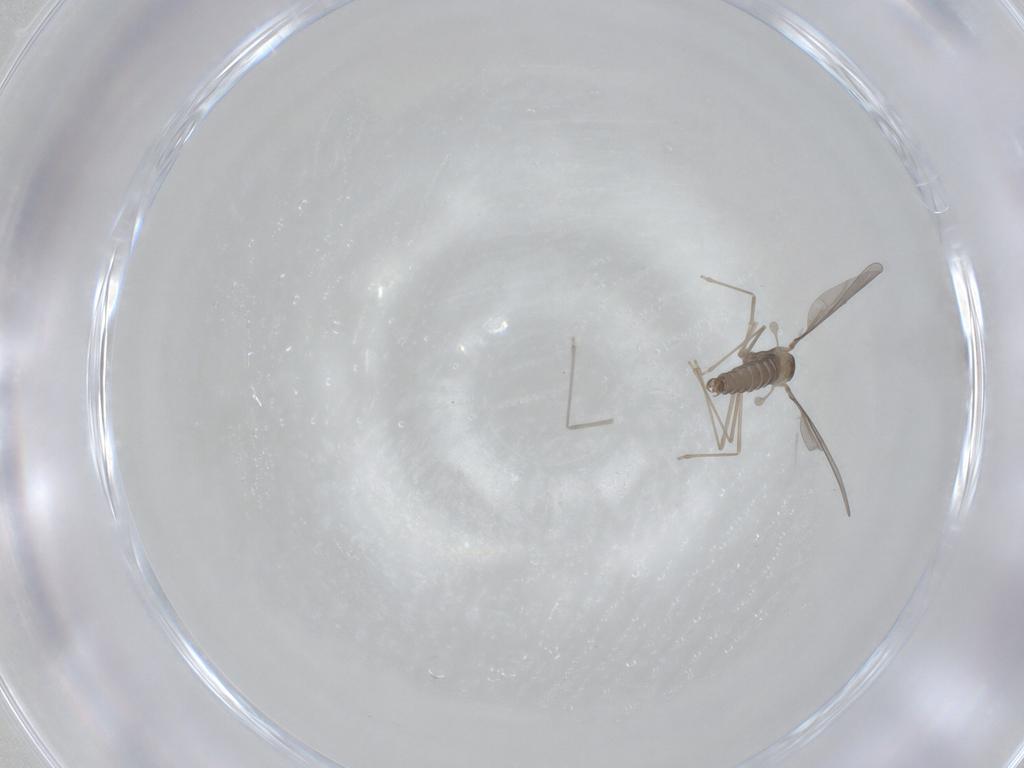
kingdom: Animalia
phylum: Arthropoda
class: Insecta
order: Diptera
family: Cecidomyiidae
